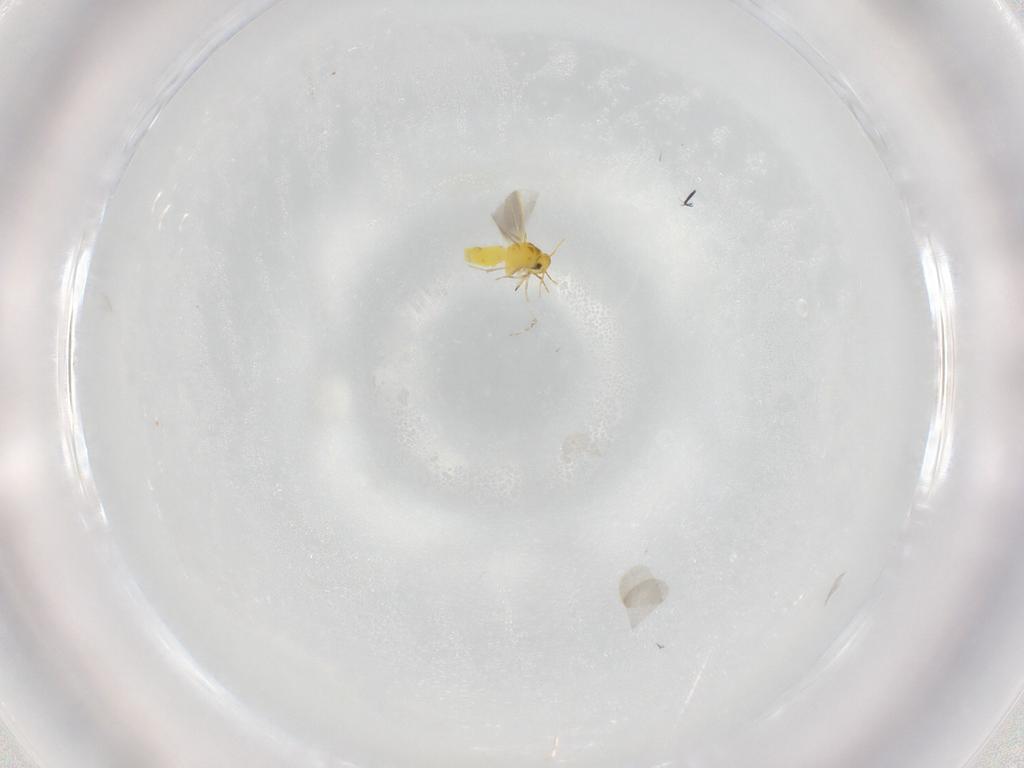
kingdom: Animalia
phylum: Arthropoda
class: Insecta
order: Hemiptera
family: Aleyrodidae
